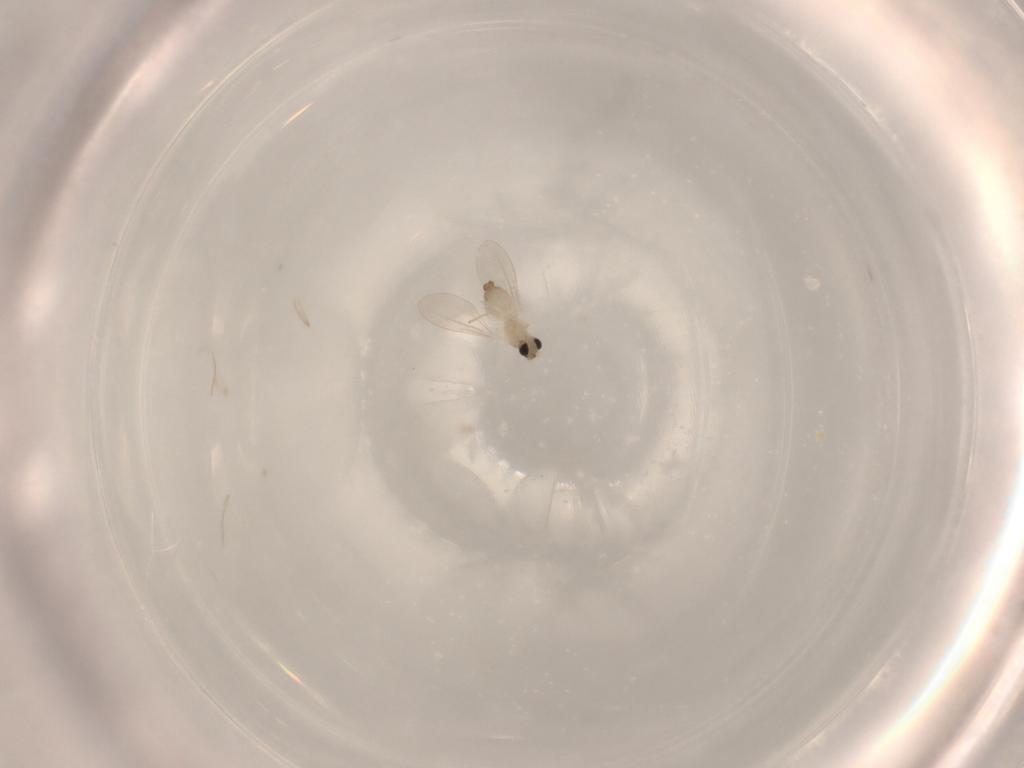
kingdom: Animalia
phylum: Arthropoda
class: Insecta
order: Diptera
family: Cecidomyiidae
